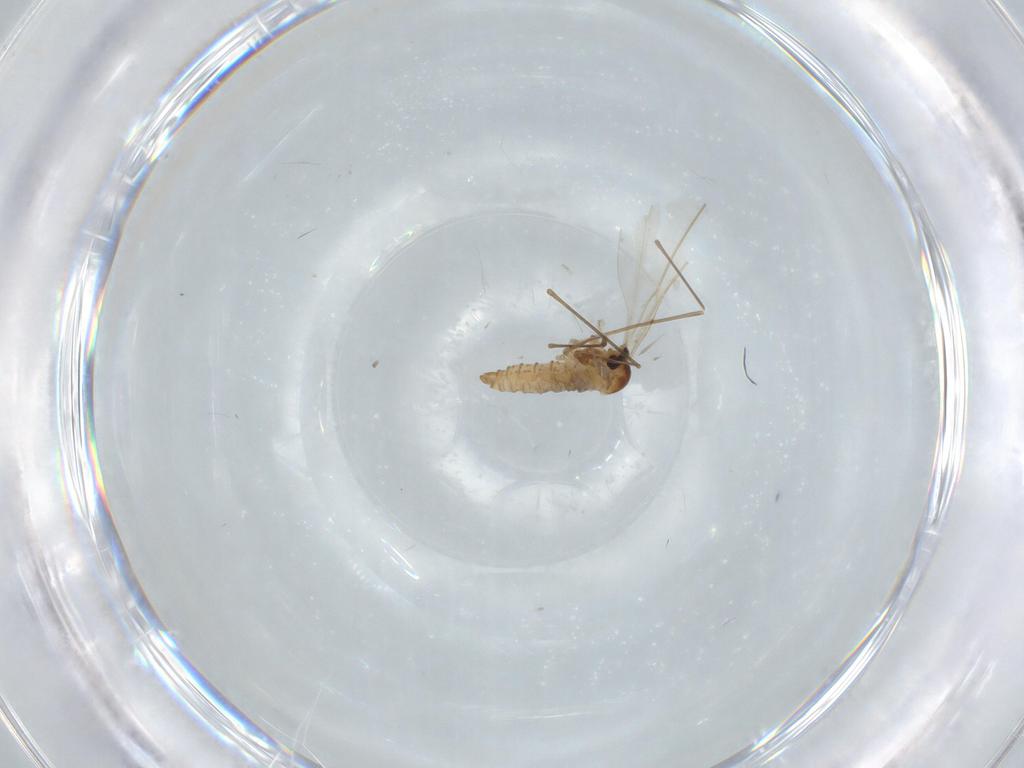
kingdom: Animalia
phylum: Arthropoda
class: Insecta
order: Diptera
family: Cecidomyiidae
